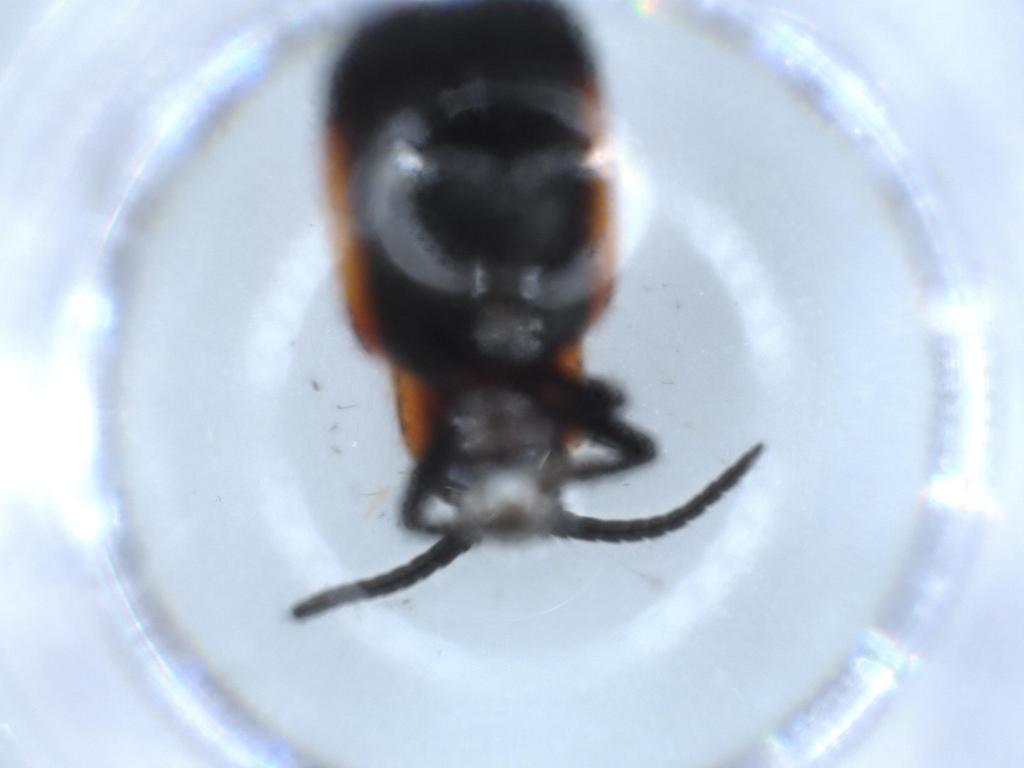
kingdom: Animalia
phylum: Arthropoda
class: Insecta
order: Coleoptera
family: Chrysomelidae
